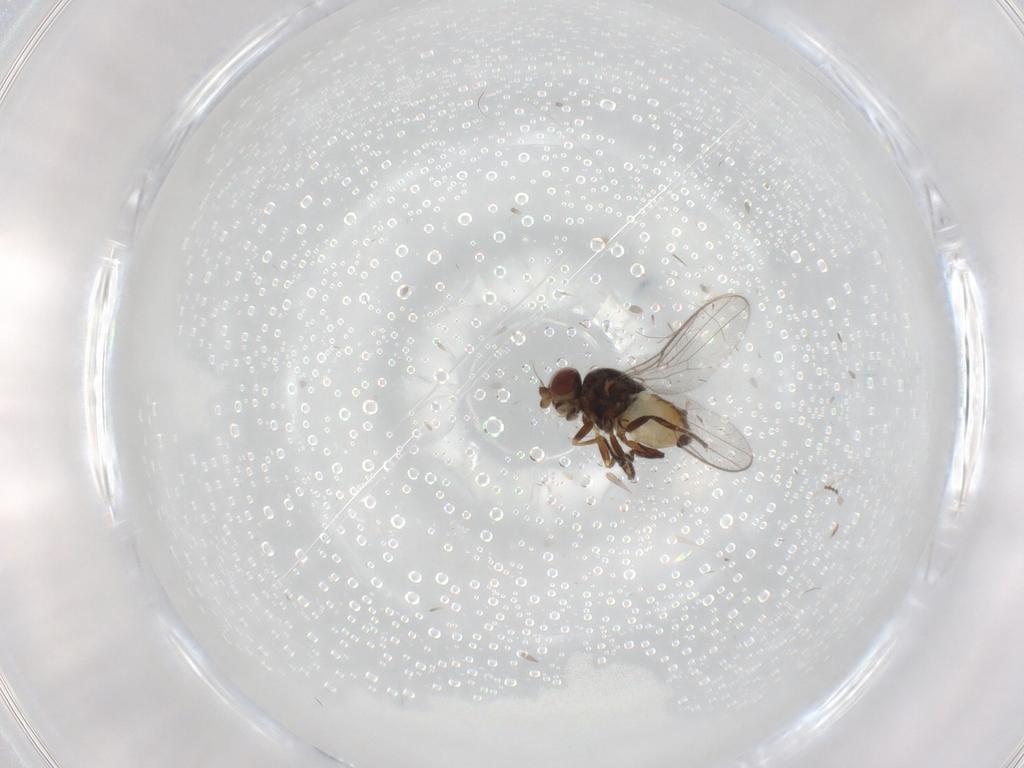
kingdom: Animalia
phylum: Arthropoda
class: Insecta
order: Diptera
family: Chloropidae
